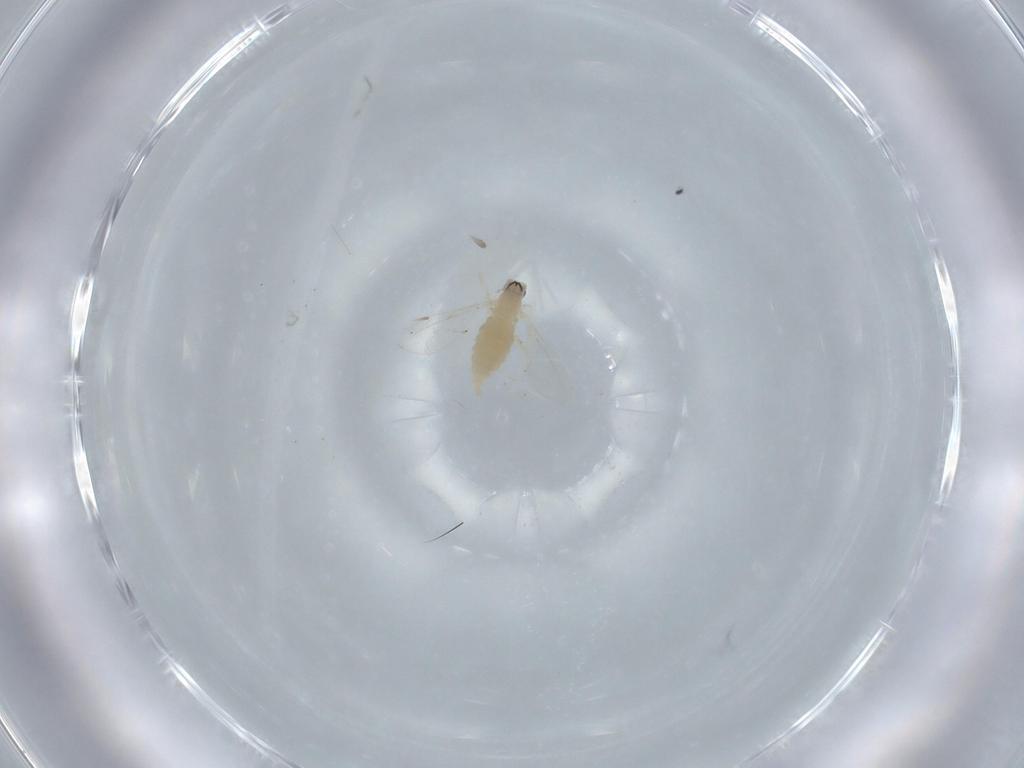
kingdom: Animalia
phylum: Arthropoda
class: Insecta
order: Diptera
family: Cecidomyiidae
